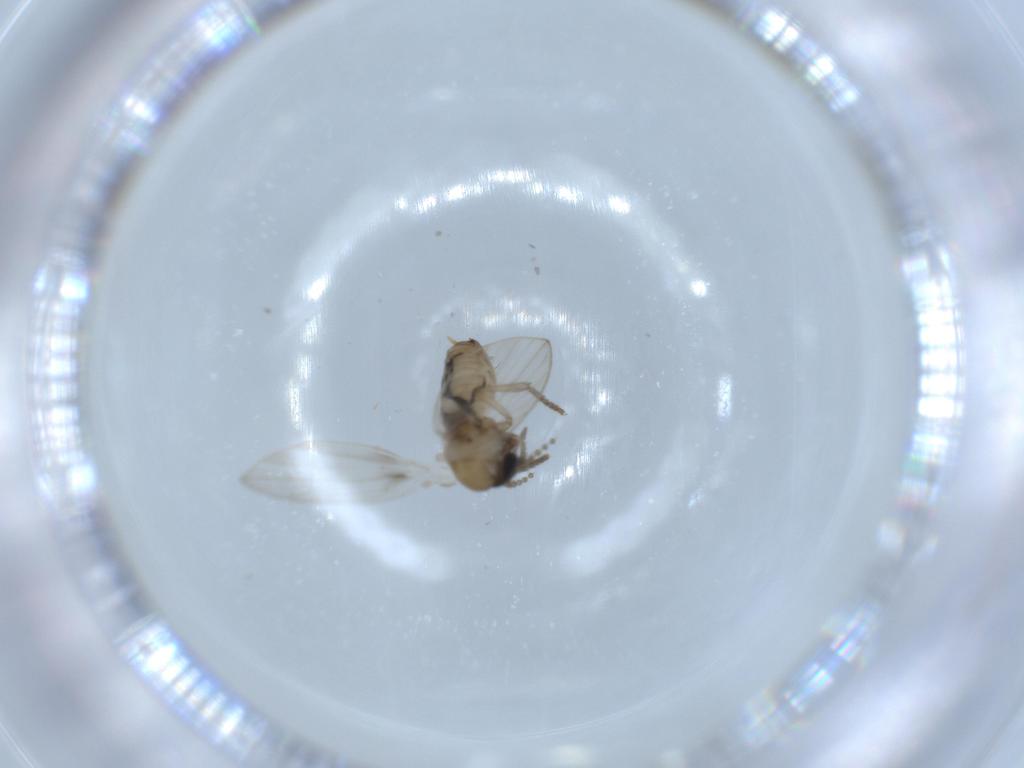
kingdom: Animalia
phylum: Arthropoda
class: Insecta
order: Diptera
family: Psychodidae
